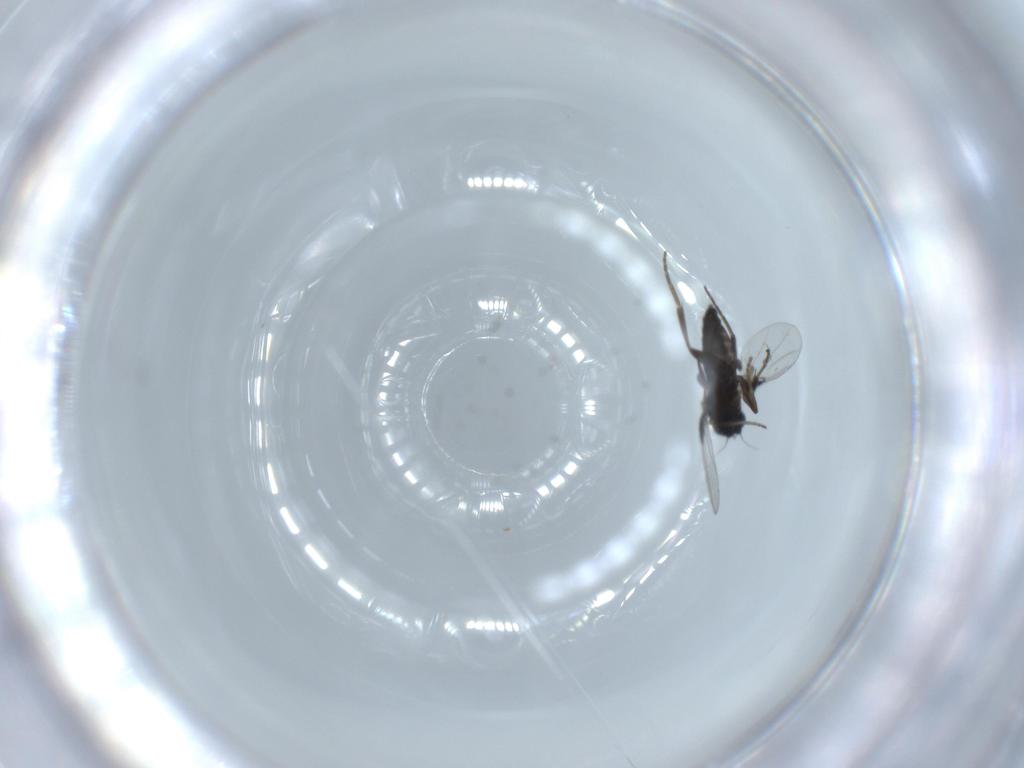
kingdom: Animalia
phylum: Arthropoda
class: Insecta
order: Diptera
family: Phoridae
